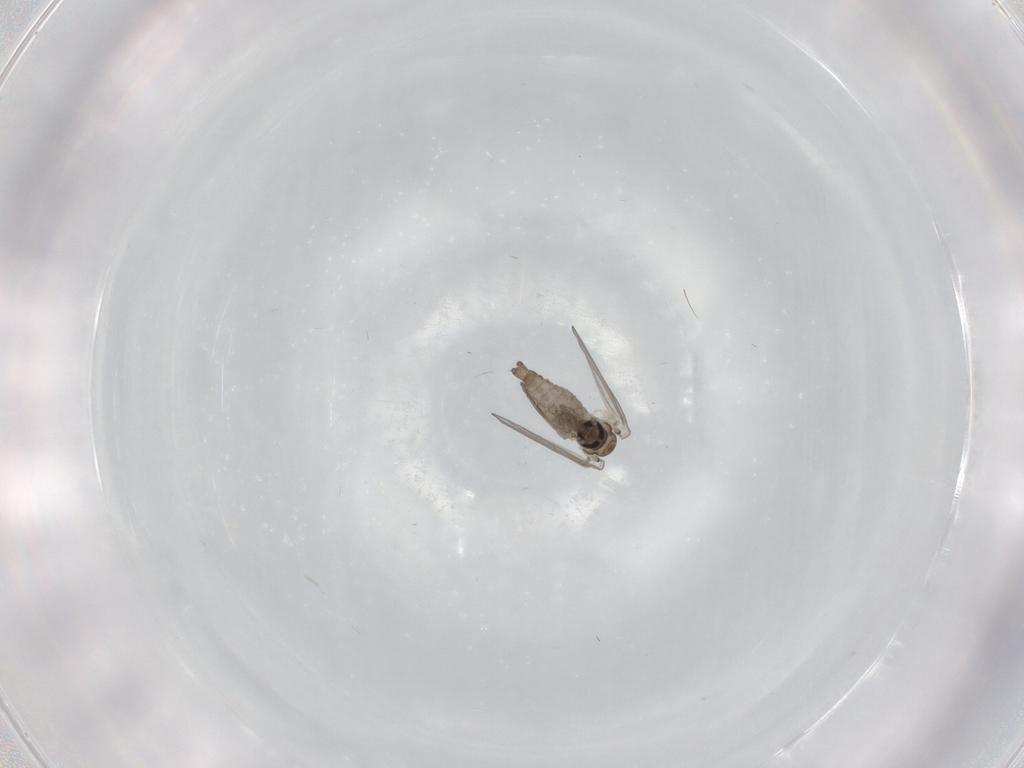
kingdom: Animalia
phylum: Arthropoda
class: Insecta
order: Diptera
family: Psychodidae
